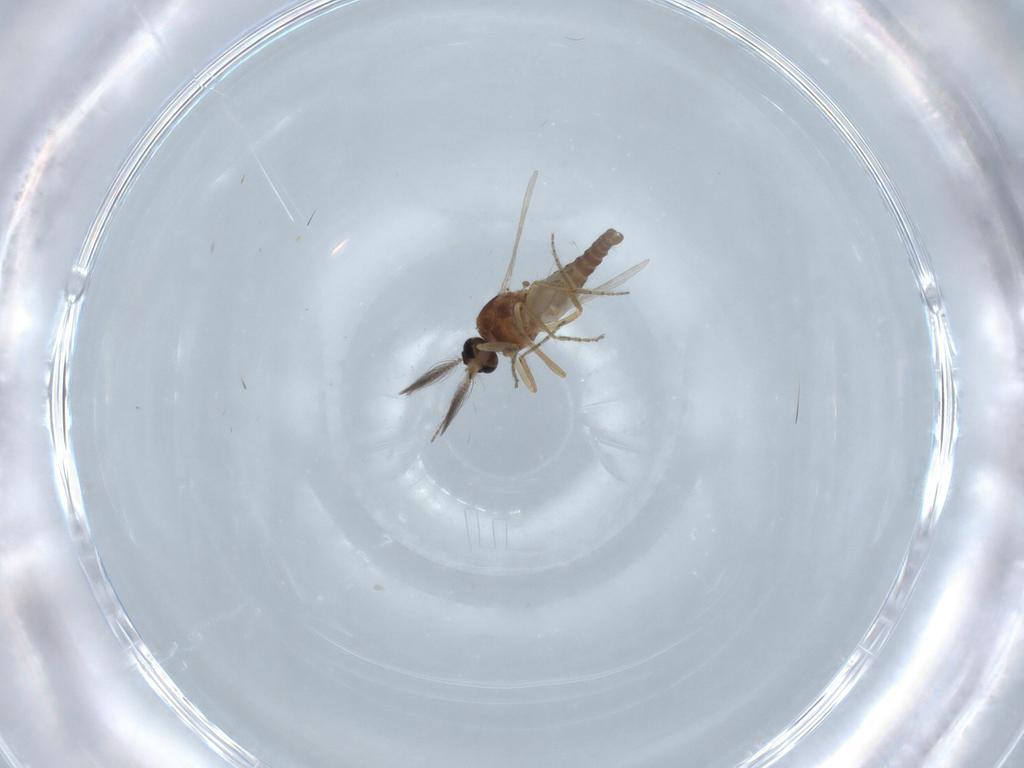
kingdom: Animalia
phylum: Arthropoda
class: Insecta
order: Diptera
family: Ceratopogonidae
